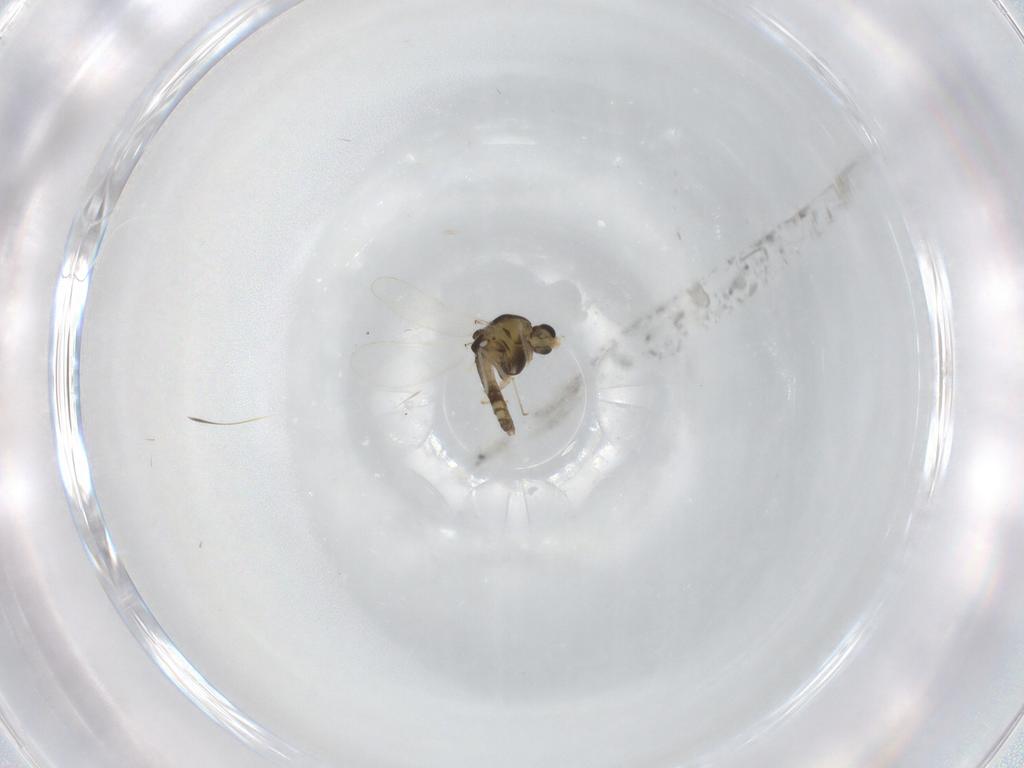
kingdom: Animalia
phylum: Arthropoda
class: Insecta
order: Diptera
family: Chironomidae
